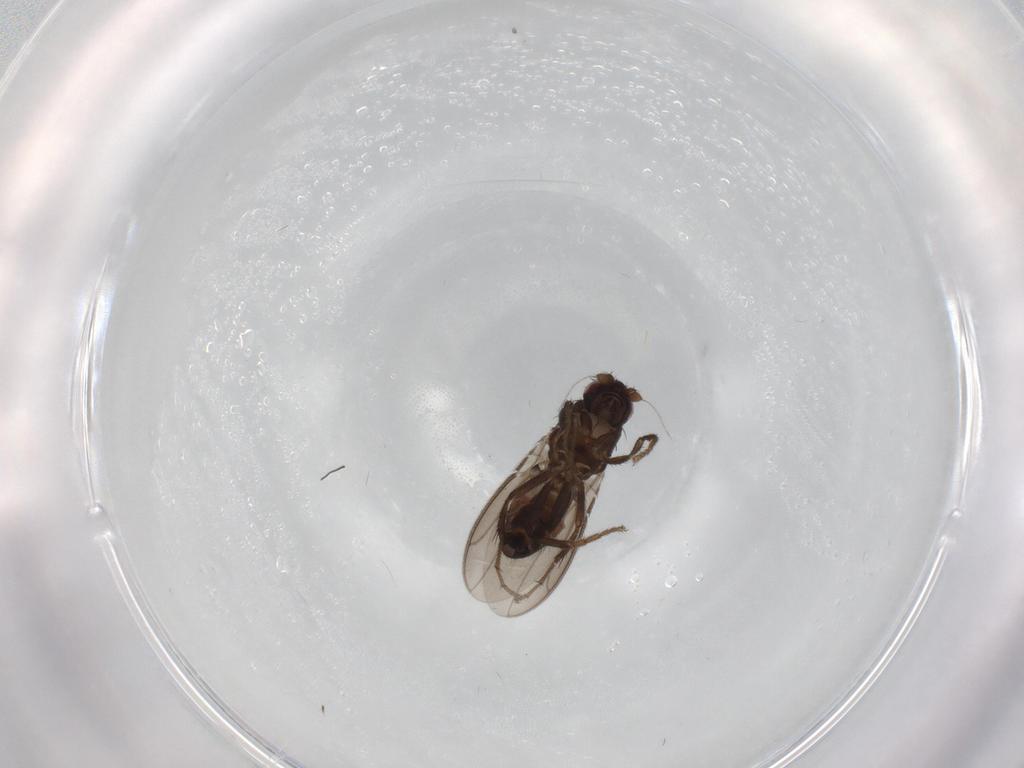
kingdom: Animalia
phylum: Arthropoda
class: Insecta
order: Diptera
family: Sphaeroceridae
